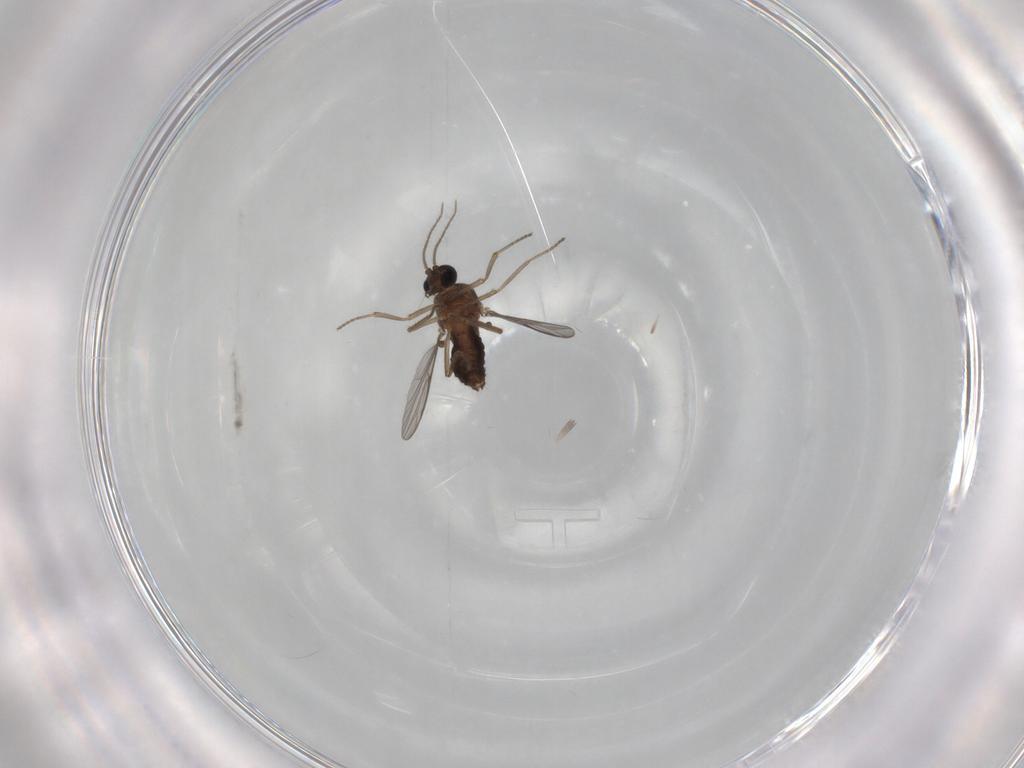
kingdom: Animalia
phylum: Arthropoda
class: Insecta
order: Diptera
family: Ceratopogonidae
